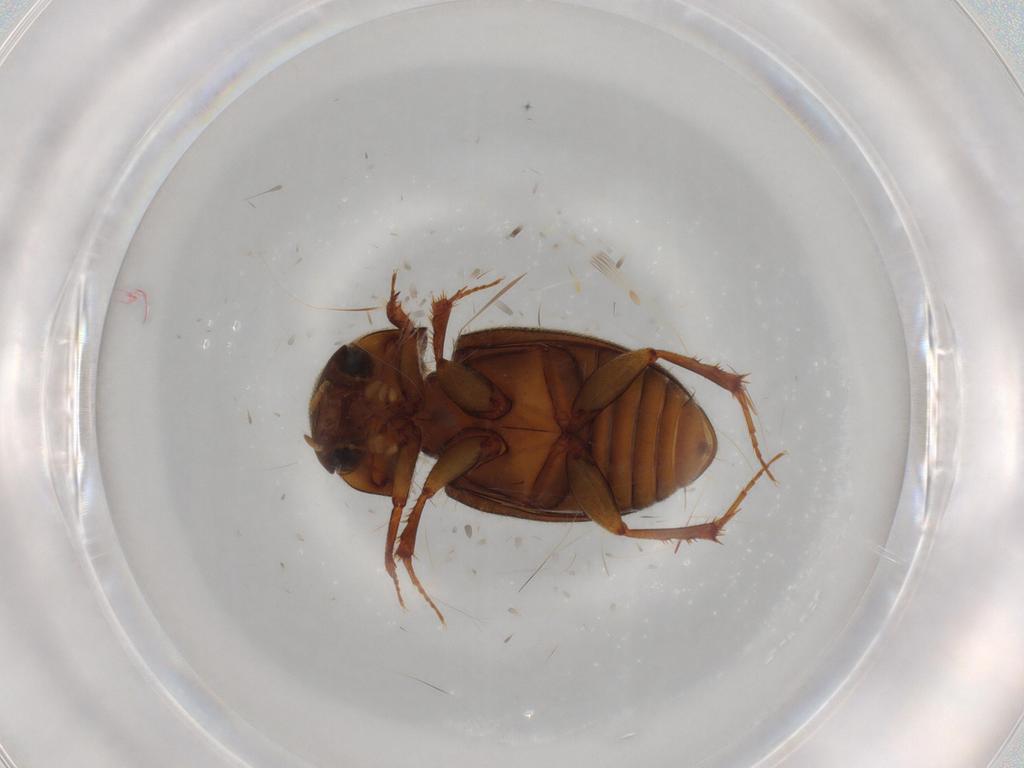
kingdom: Animalia
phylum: Arthropoda
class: Insecta
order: Coleoptera
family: Scarabaeidae
